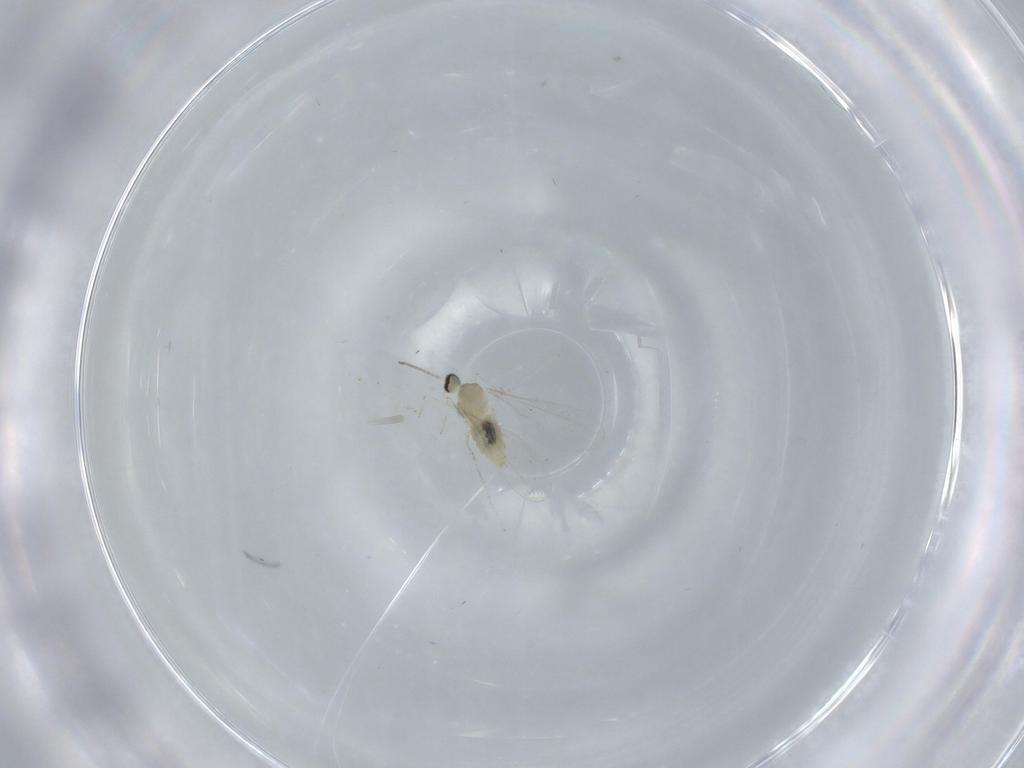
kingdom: Animalia
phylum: Arthropoda
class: Insecta
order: Diptera
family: Cecidomyiidae
